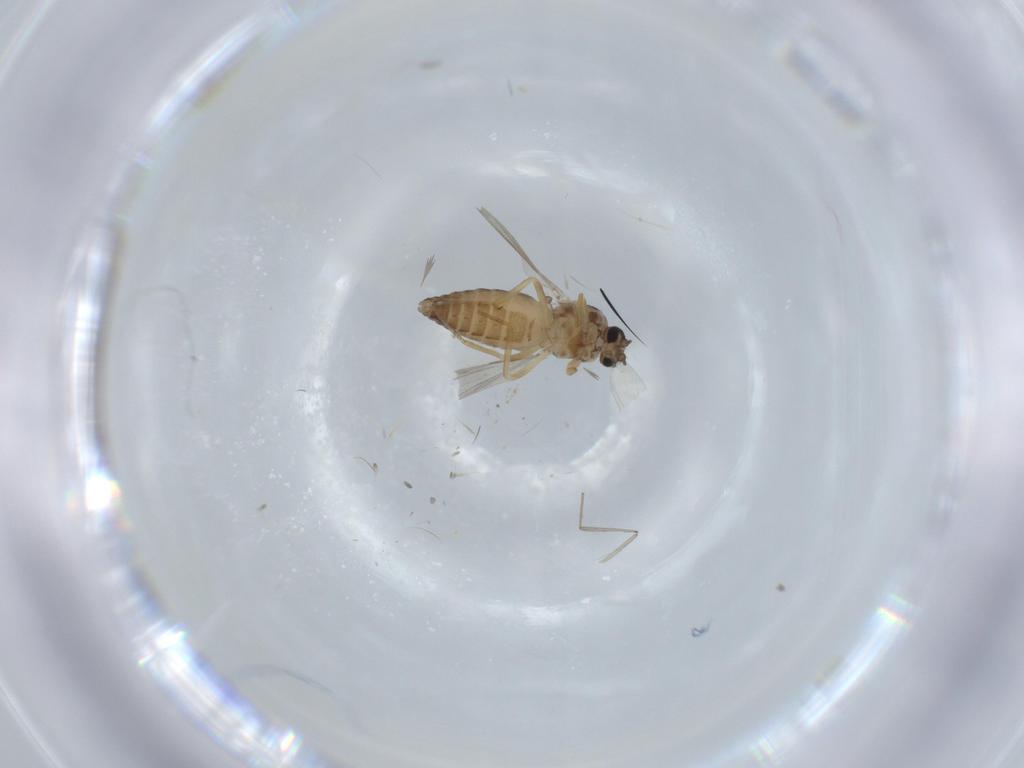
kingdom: Animalia
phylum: Arthropoda
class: Insecta
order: Diptera
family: Ceratopogonidae
